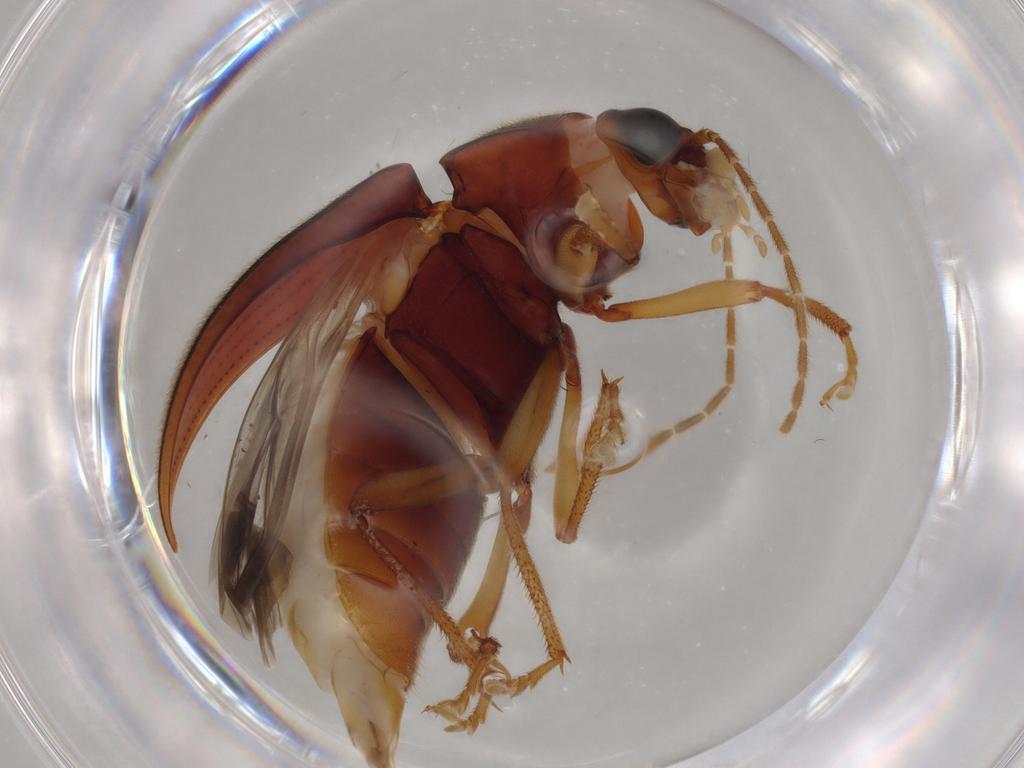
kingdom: Animalia
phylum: Arthropoda
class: Insecta
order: Coleoptera
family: Ptilodactylidae
